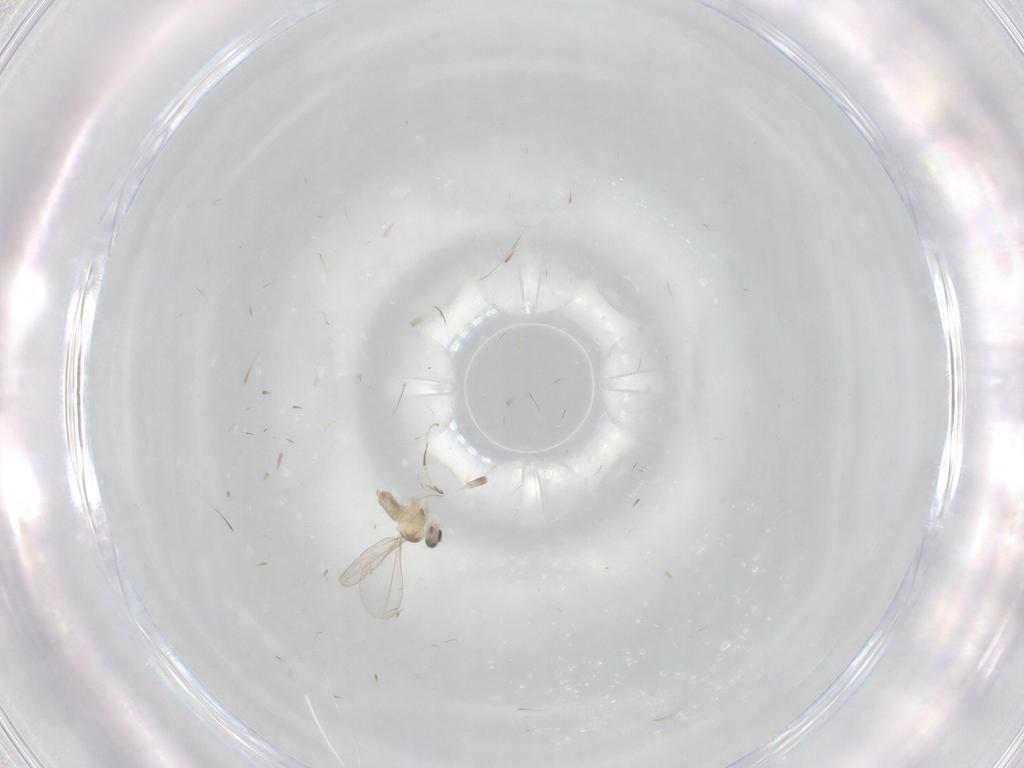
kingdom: Animalia
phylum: Arthropoda
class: Insecta
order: Diptera
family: Cecidomyiidae
